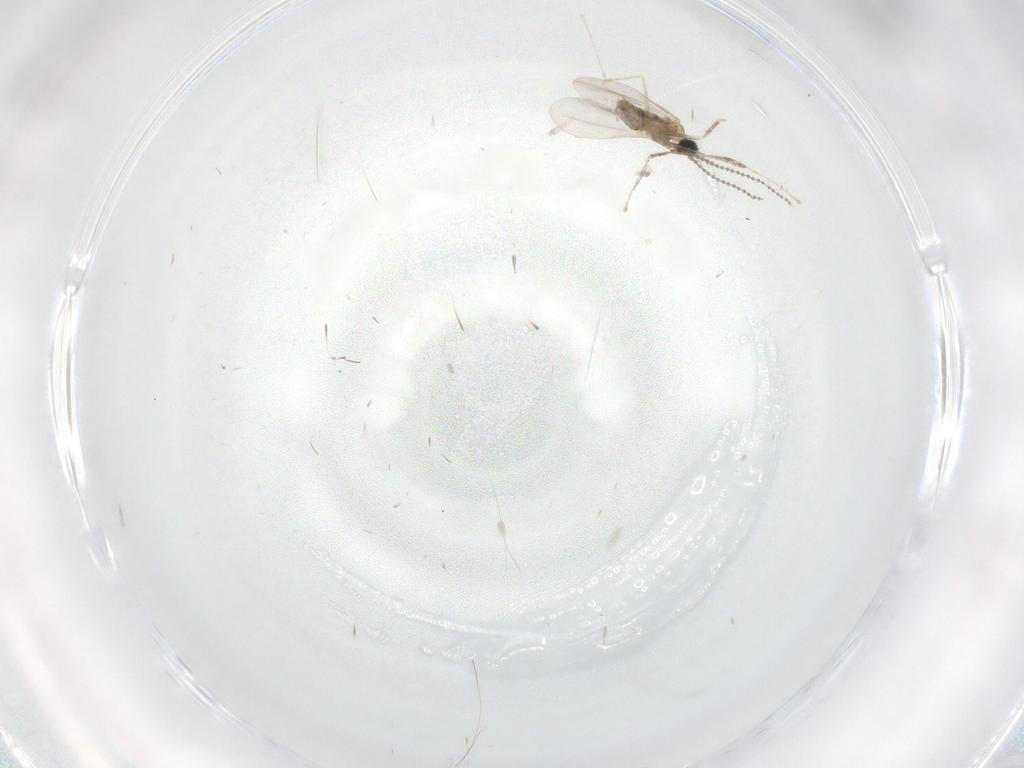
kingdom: Animalia
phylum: Arthropoda
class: Insecta
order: Diptera
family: Cecidomyiidae
